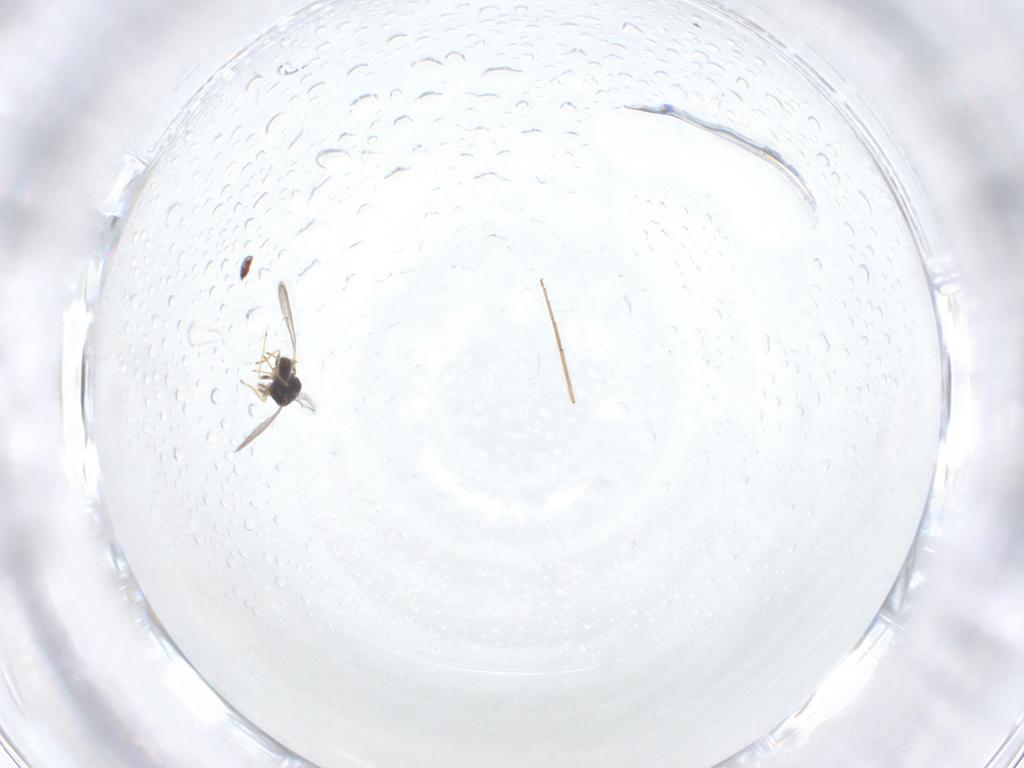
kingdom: Animalia
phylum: Arthropoda
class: Insecta
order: Hymenoptera
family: Eulophidae
